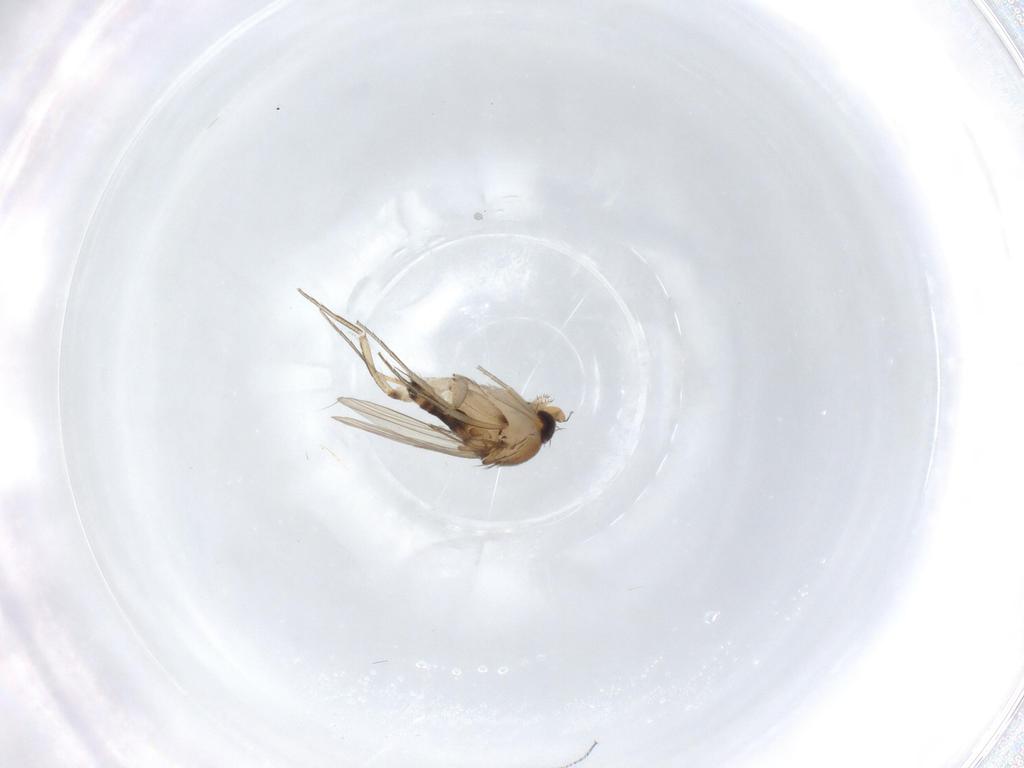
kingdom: Animalia
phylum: Arthropoda
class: Insecta
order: Diptera
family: Phoridae
